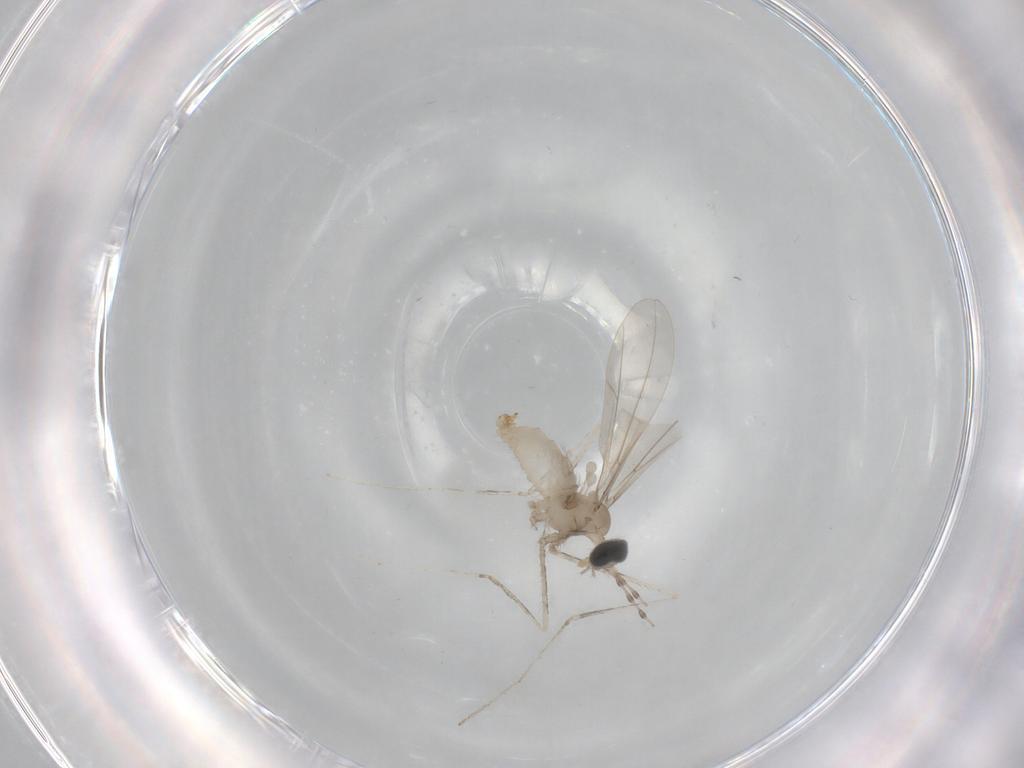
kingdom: Animalia
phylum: Arthropoda
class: Insecta
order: Diptera
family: Cecidomyiidae
